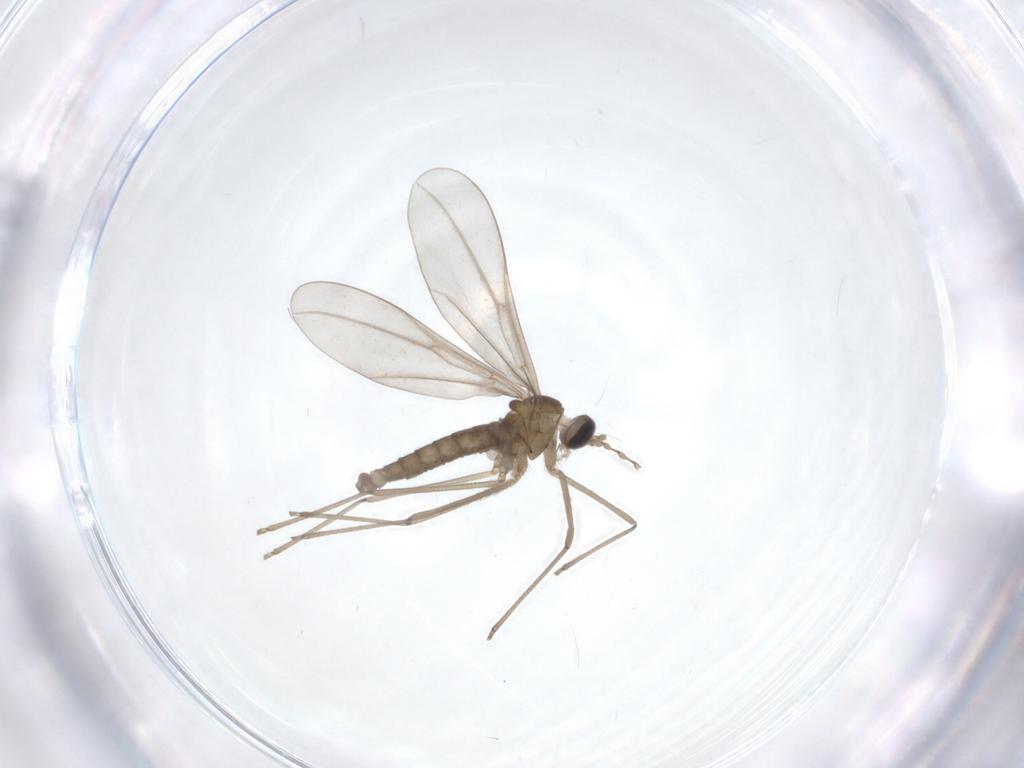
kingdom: Animalia
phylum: Arthropoda
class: Insecta
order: Diptera
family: Cecidomyiidae
